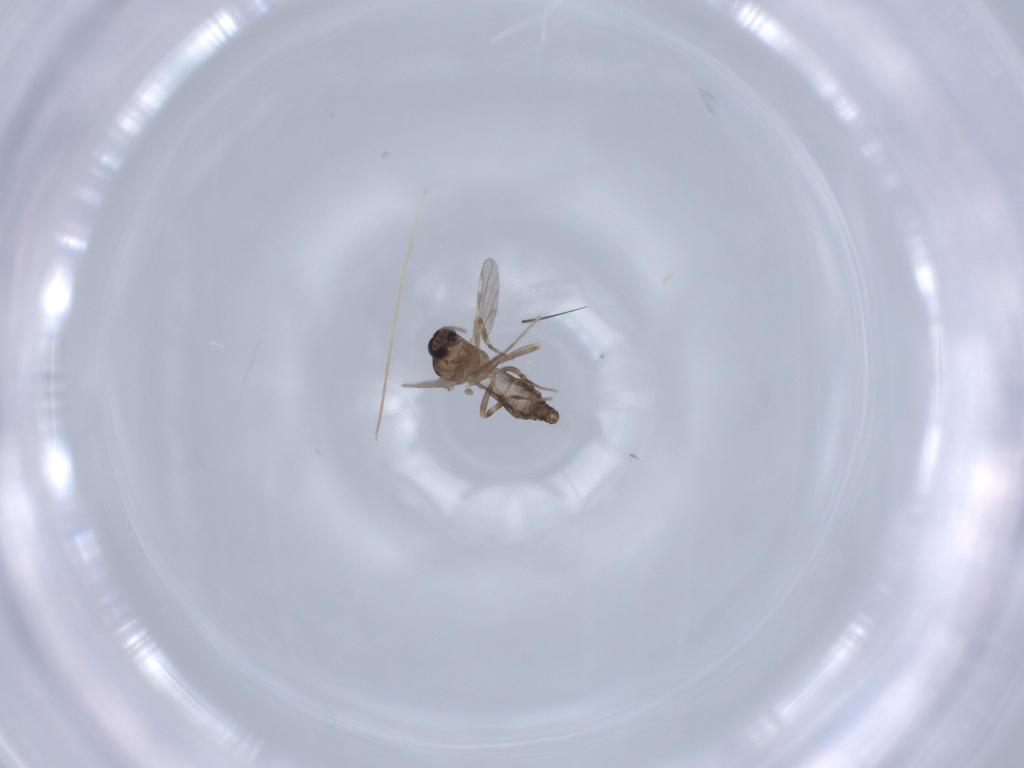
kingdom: Animalia
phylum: Arthropoda
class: Insecta
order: Diptera
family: Ceratopogonidae
